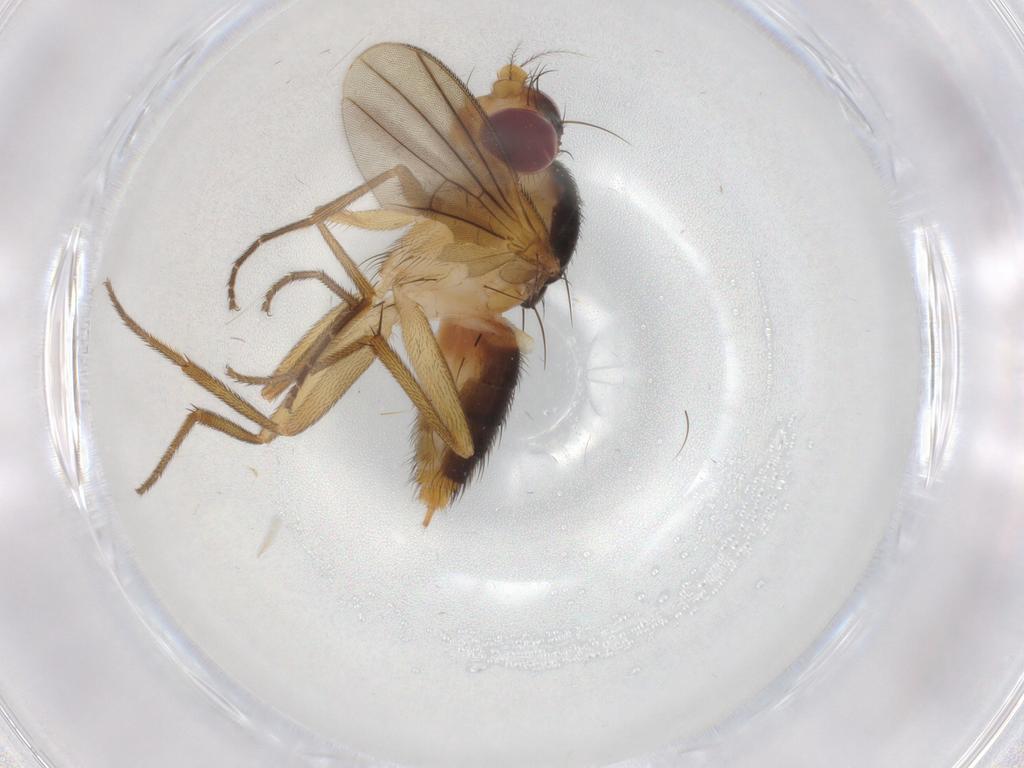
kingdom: Animalia
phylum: Arthropoda
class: Insecta
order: Diptera
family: Clusiidae
